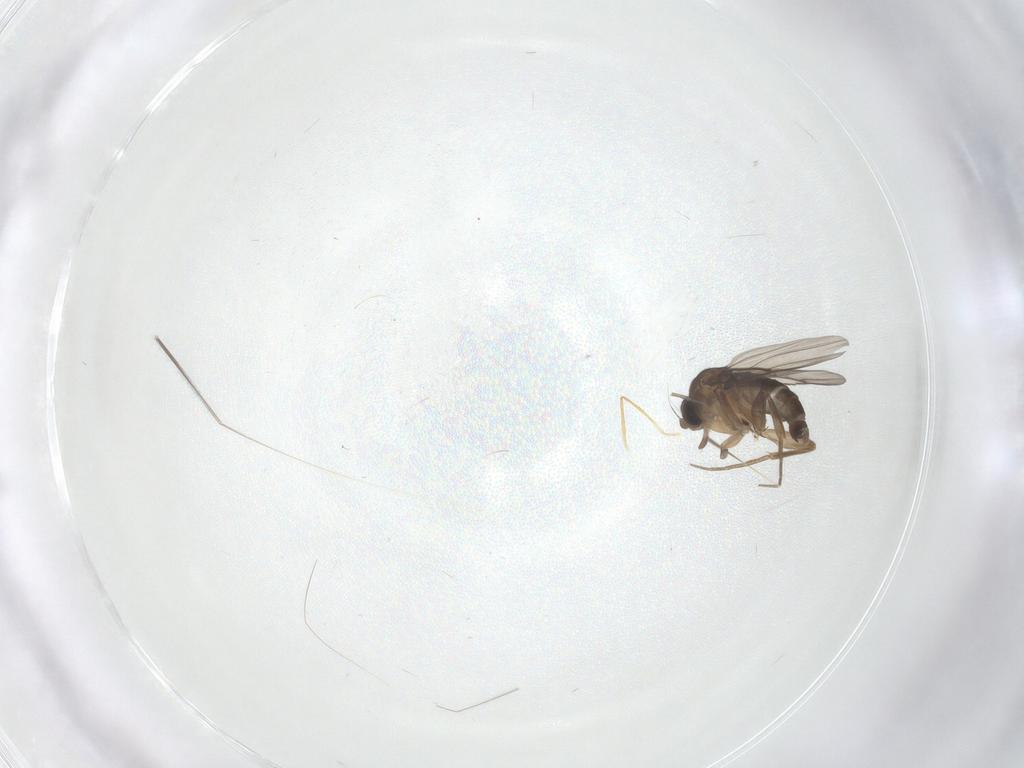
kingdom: Animalia
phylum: Arthropoda
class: Insecta
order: Diptera
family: Phoridae
